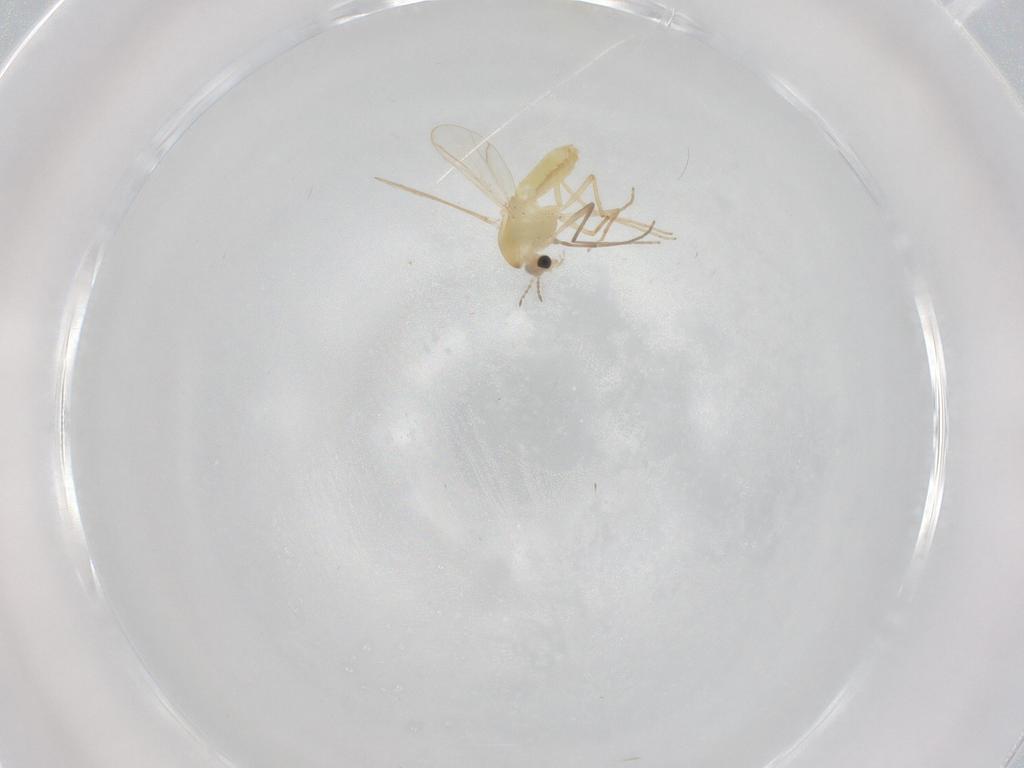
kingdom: Animalia
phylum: Arthropoda
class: Insecta
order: Diptera
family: Chironomidae
